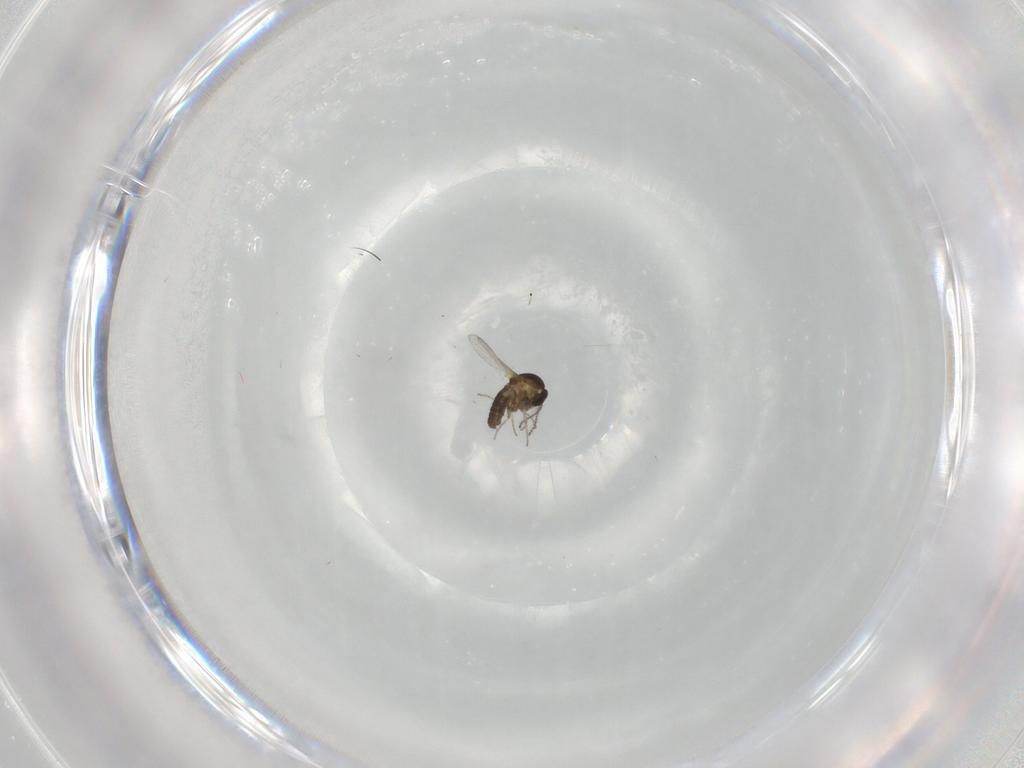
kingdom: Animalia
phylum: Arthropoda
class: Insecta
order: Diptera
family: Ceratopogonidae
